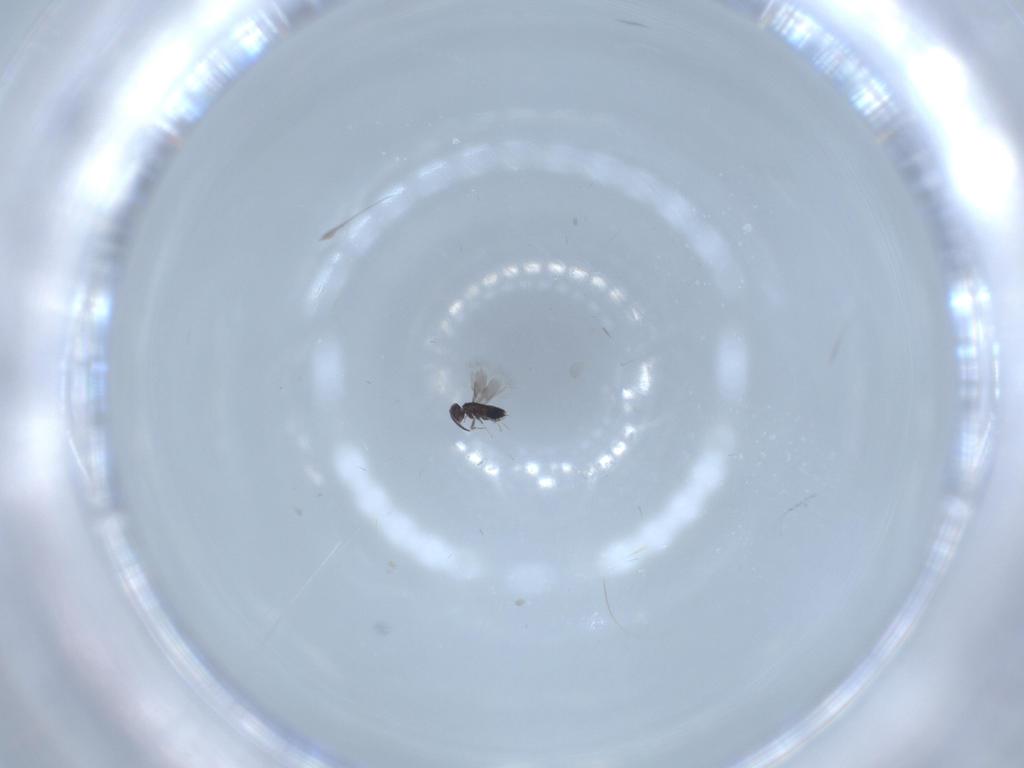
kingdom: Animalia
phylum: Arthropoda
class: Insecta
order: Hymenoptera
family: Signiphoridae
